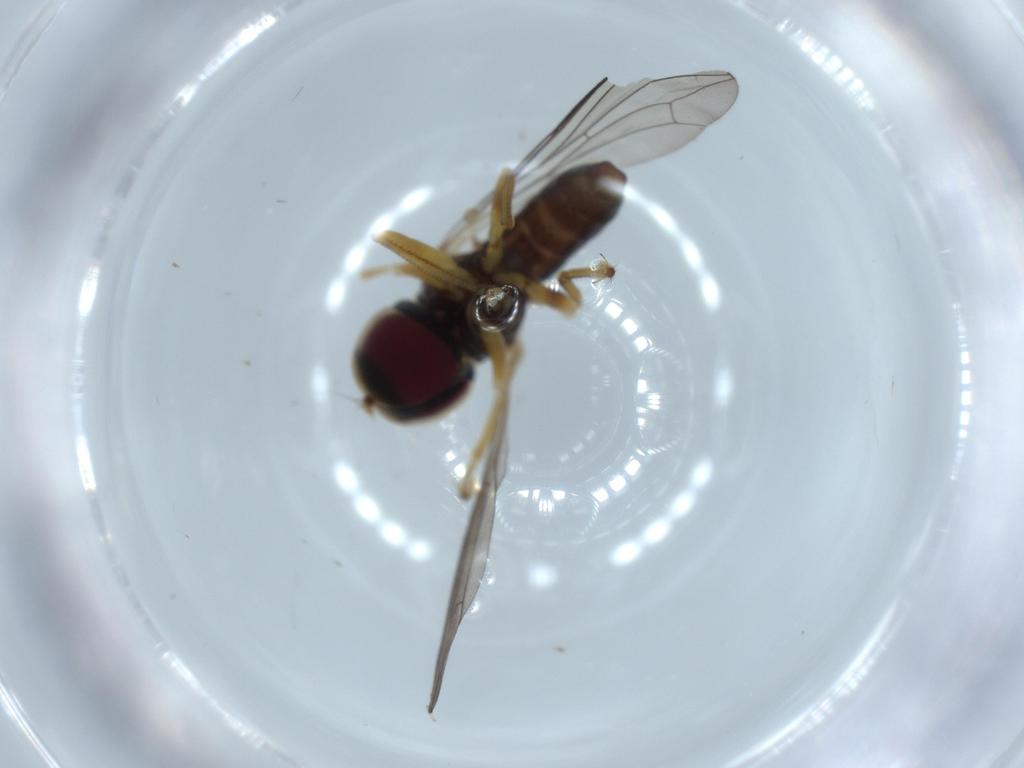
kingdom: Animalia
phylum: Arthropoda
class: Insecta
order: Diptera
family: Pipunculidae
